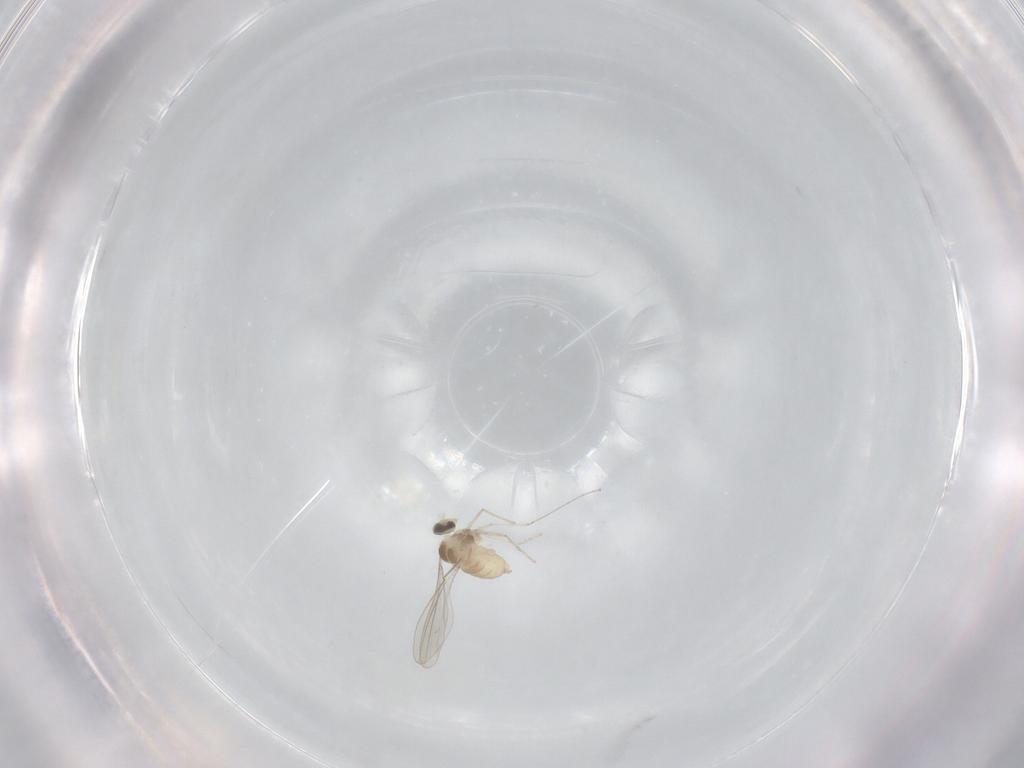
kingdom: Animalia
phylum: Arthropoda
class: Insecta
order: Diptera
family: Cecidomyiidae
